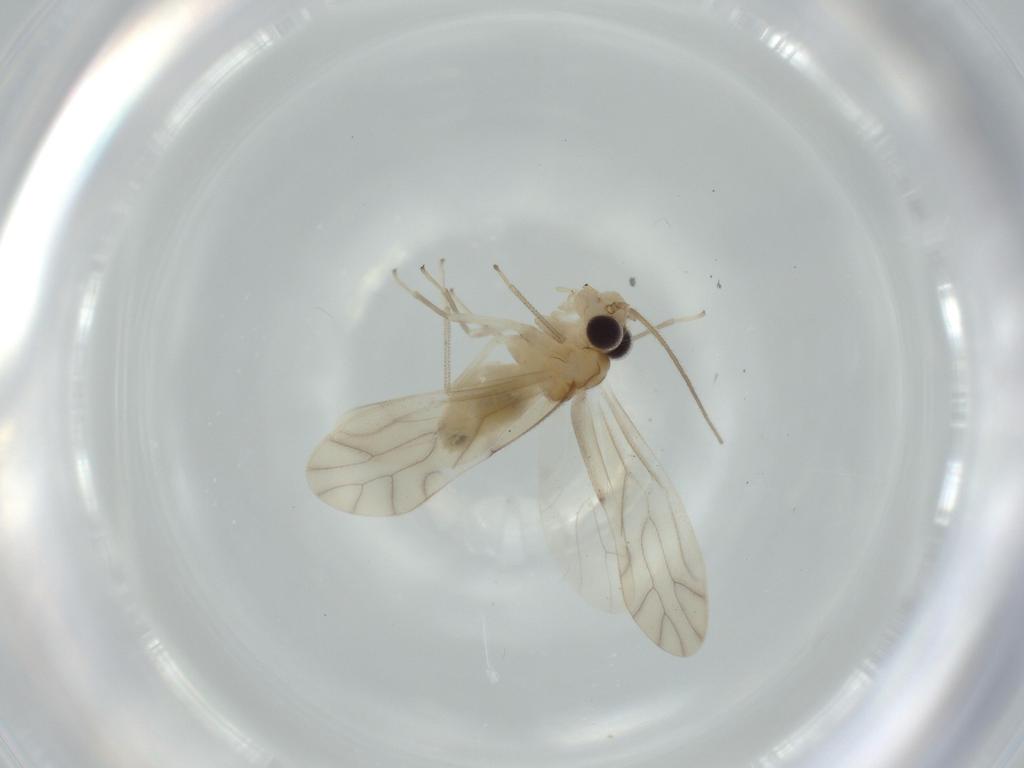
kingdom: Animalia
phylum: Arthropoda
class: Insecta
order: Psocodea
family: Caeciliusidae
